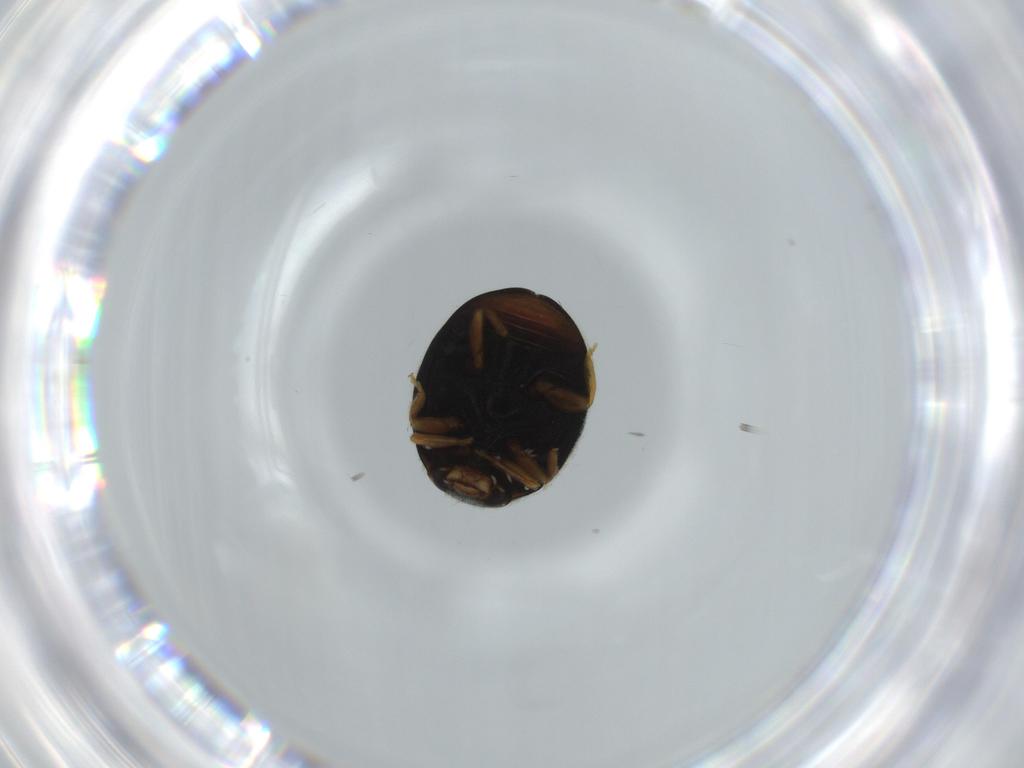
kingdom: Animalia
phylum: Arthropoda
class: Insecta
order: Coleoptera
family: Coccinellidae
